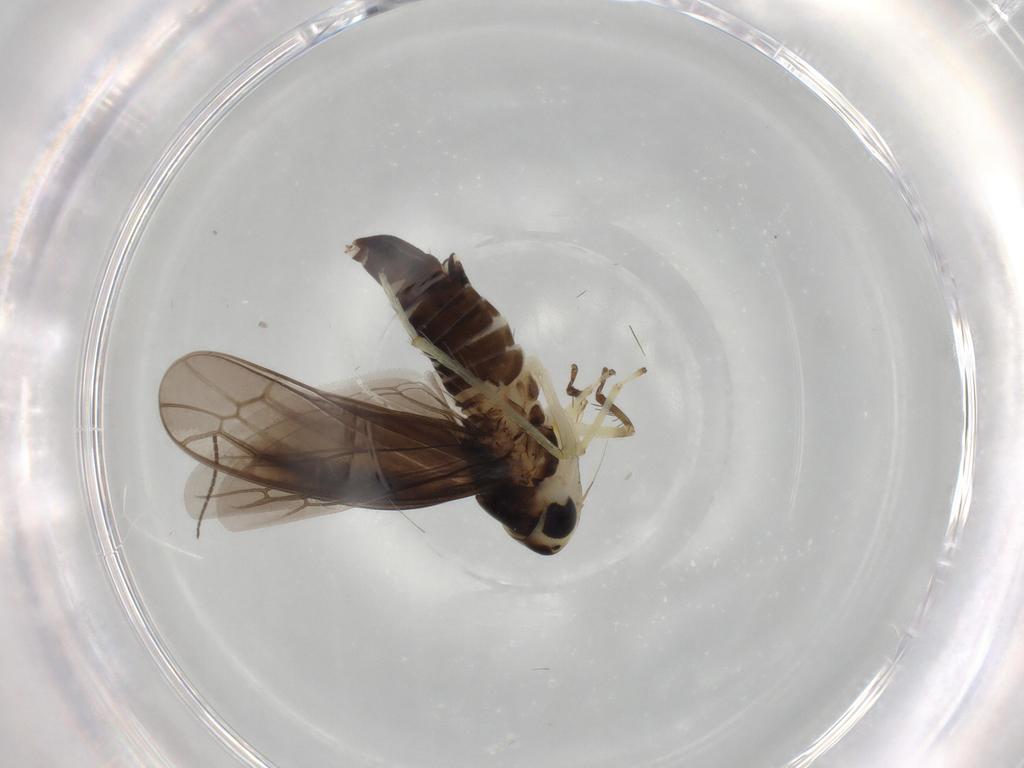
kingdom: Animalia
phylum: Arthropoda
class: Insecta
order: Hemiptera
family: Cicadellidae
